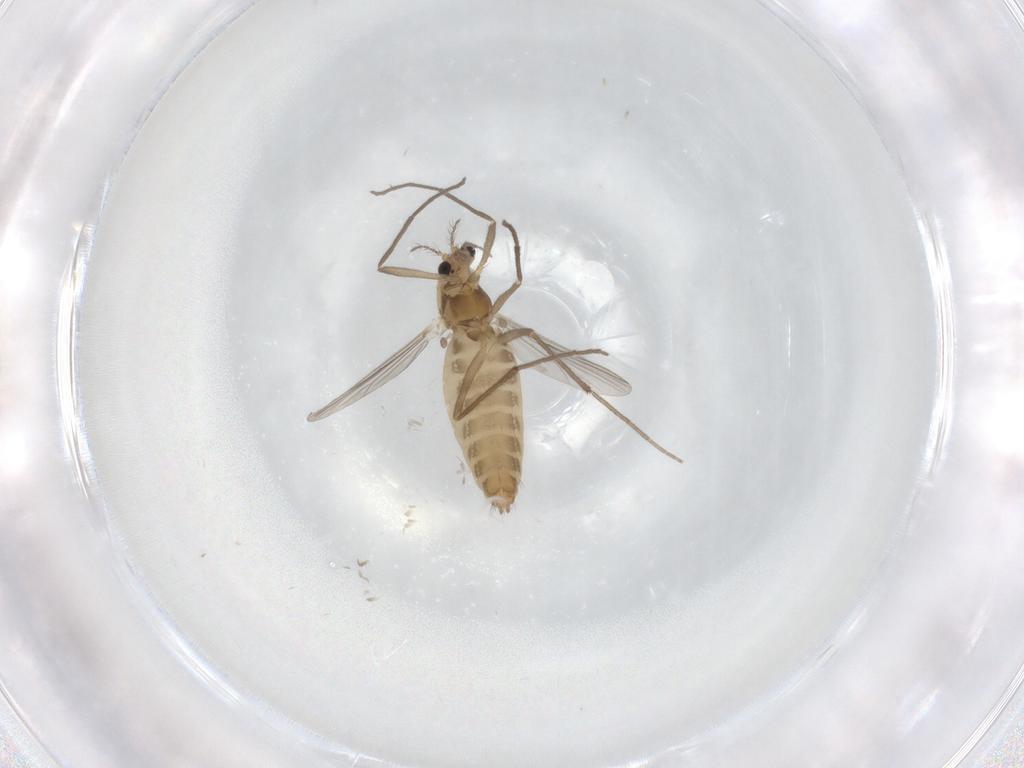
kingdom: Animalia
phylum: Arthropoda
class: Insecta
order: Diptera
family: Chironomidae
